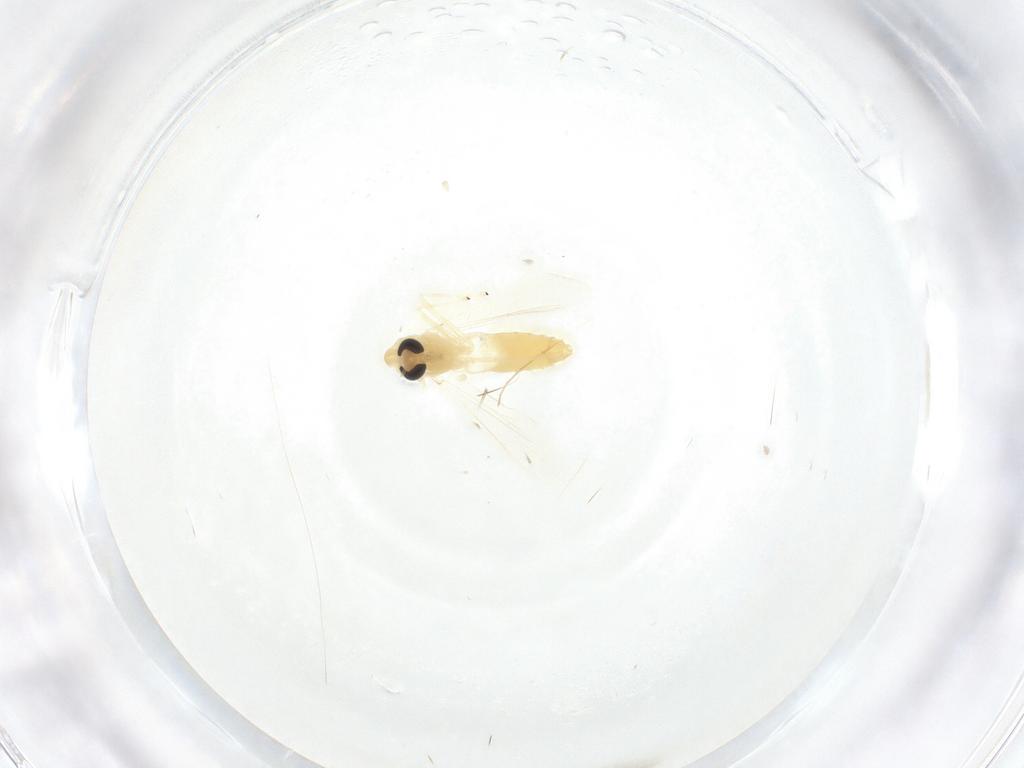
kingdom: Animalia
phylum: Arthropoda
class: Insecta
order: Diptera
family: Chironomidae
